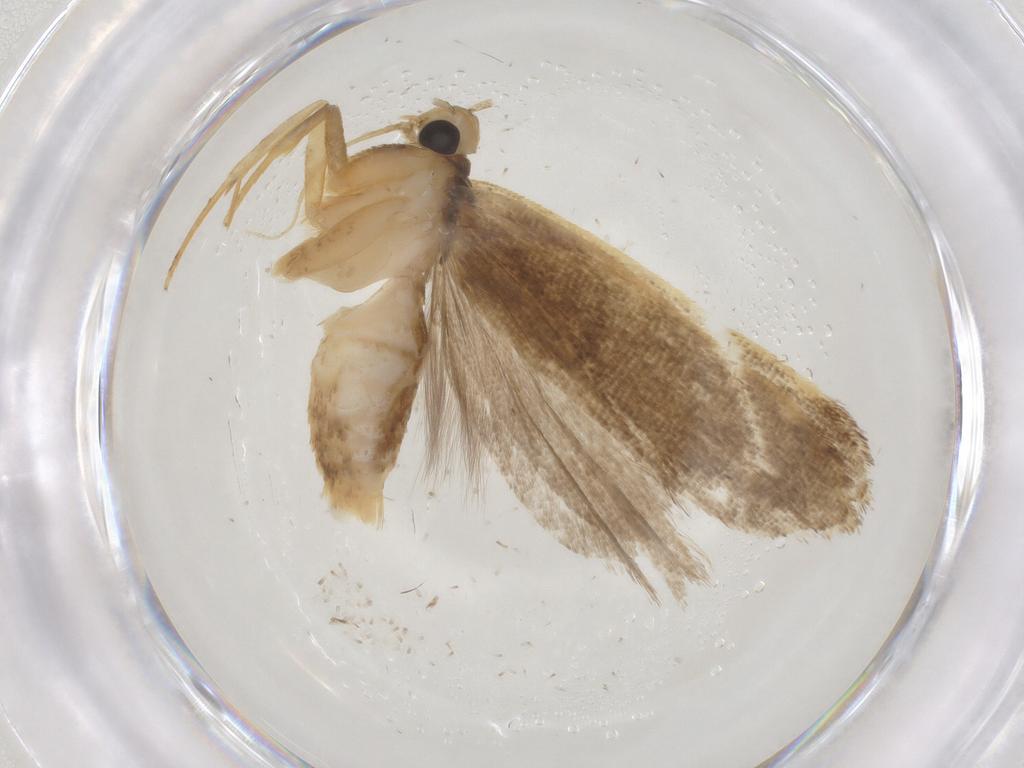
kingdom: Animalia
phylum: Arthropoda
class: Insecta
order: Lepidoptera
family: Gelechiidae
